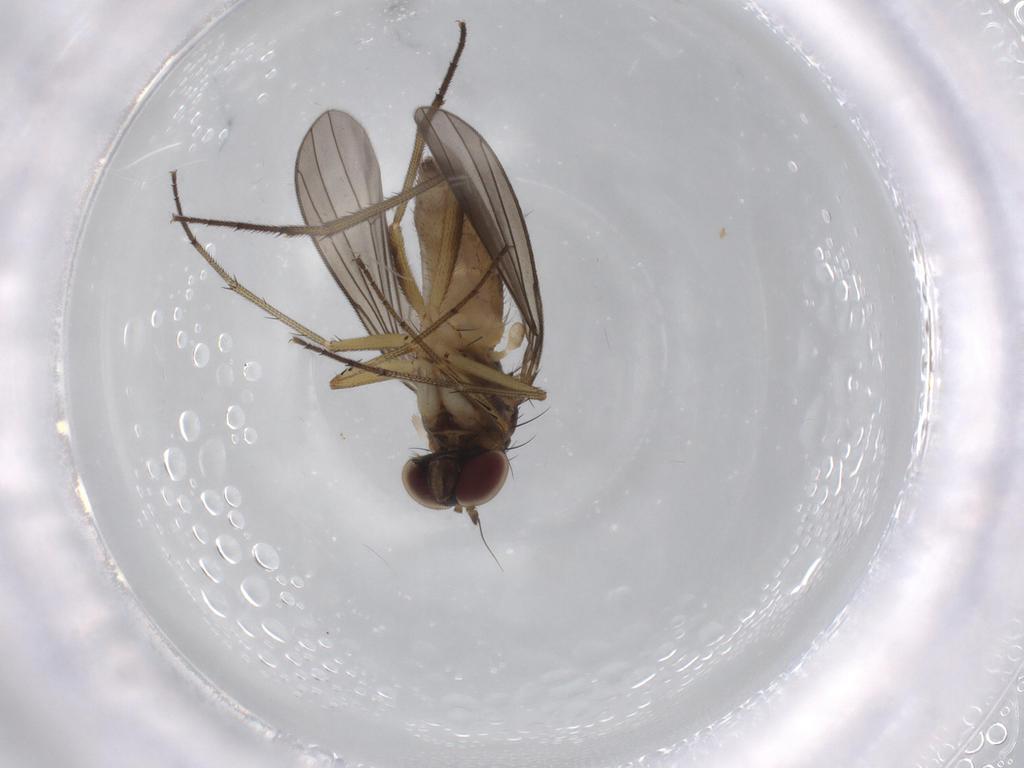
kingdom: Animalia
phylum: Arthropoda
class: Insecta
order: Diptera
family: Dolichopodidae
